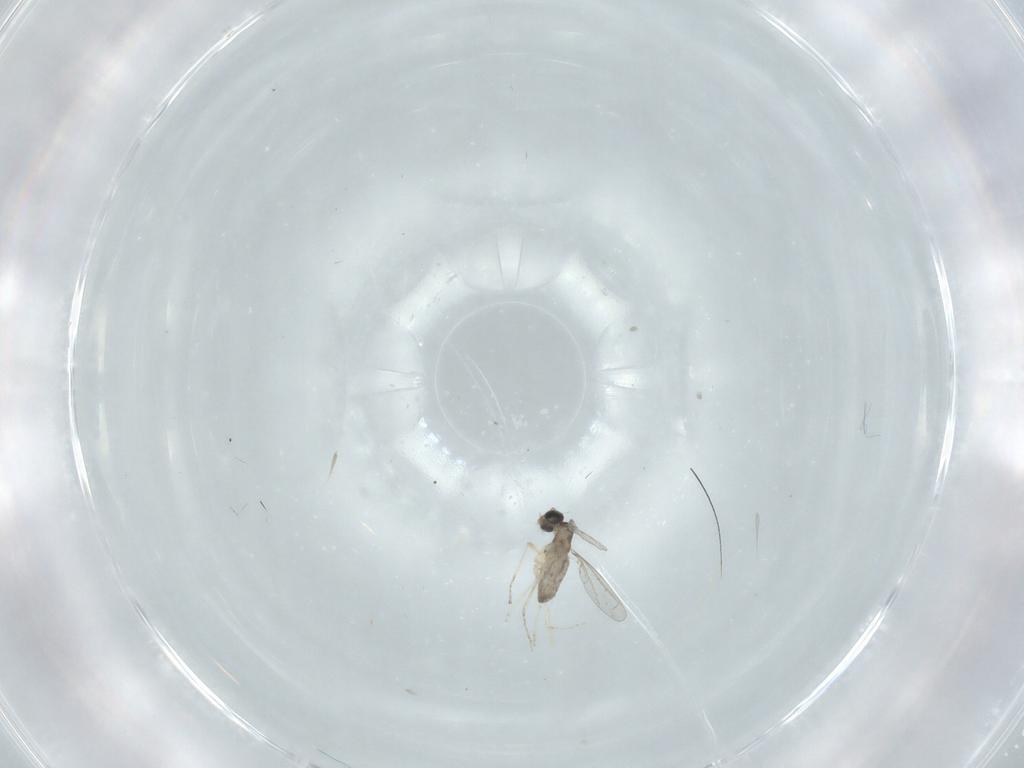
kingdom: Animalia
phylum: Arthropoda
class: Insecta
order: Diptera
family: Cecidomyiidae
